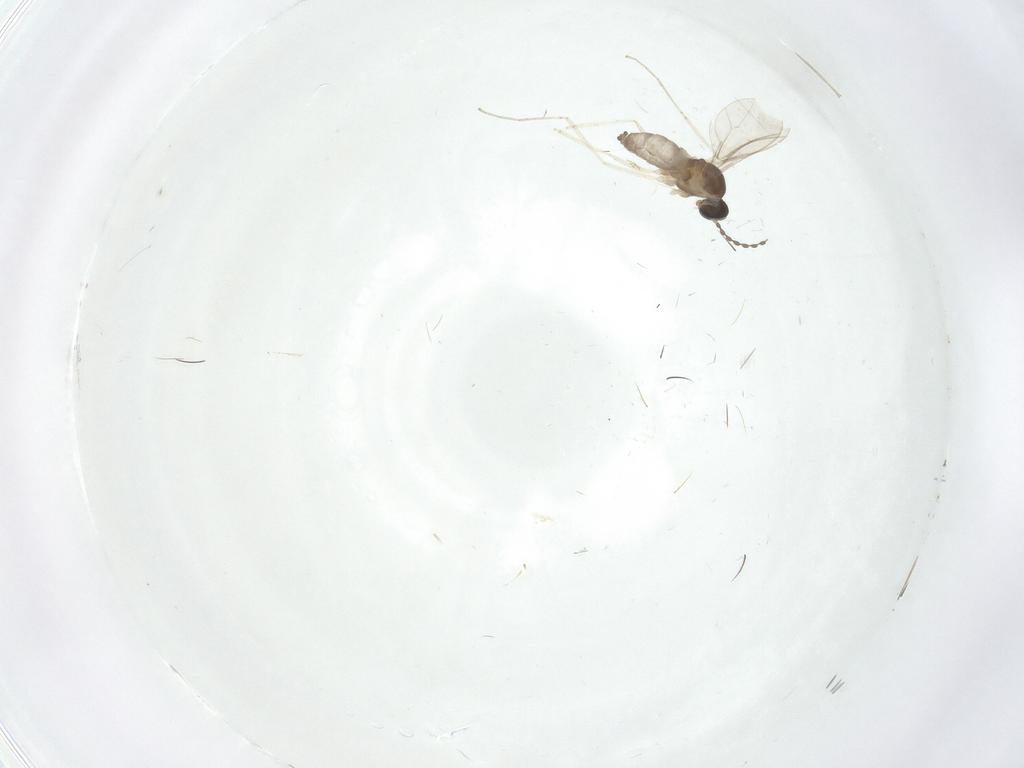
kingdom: Animalia
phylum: Arthropoda
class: Insecta
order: Diptera
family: Cecidomyiidae
